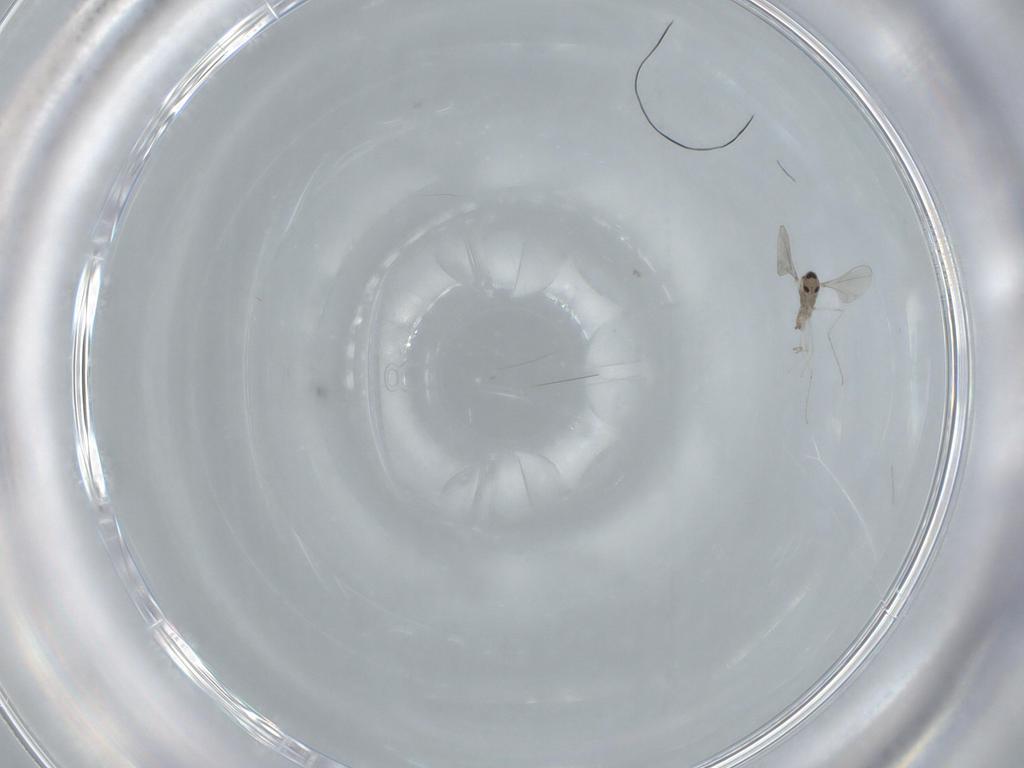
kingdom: Animalia
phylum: Arthropoda
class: Insecta
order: Diptera
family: Cecidomyiidae
